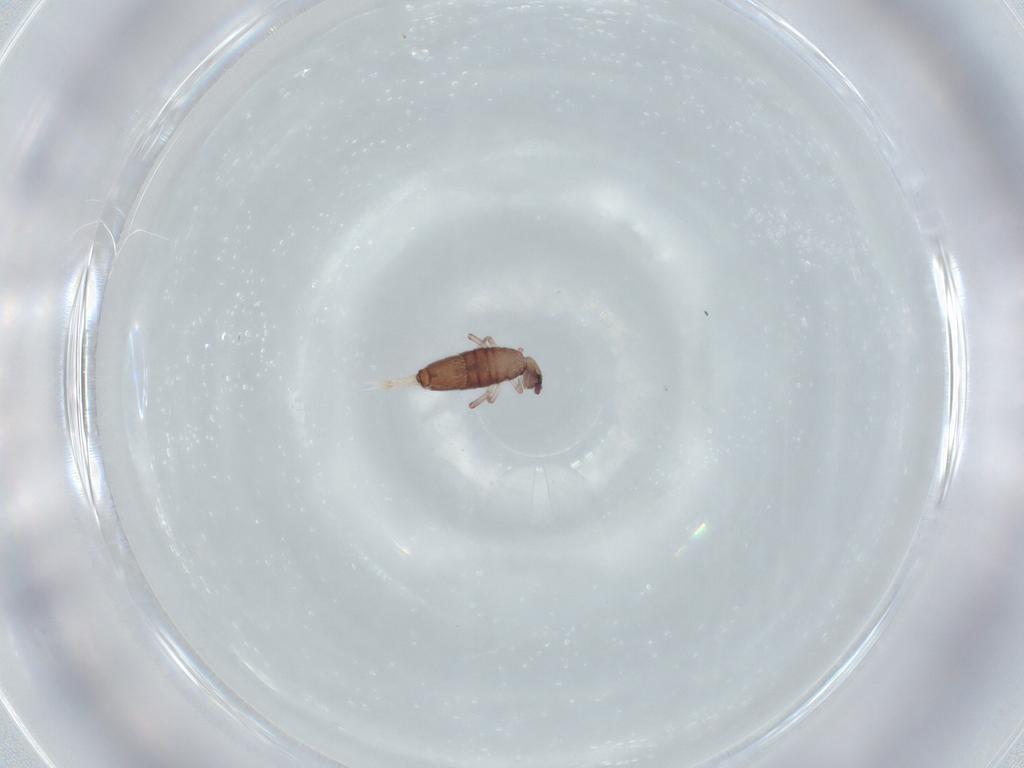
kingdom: Animalia
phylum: Arthropoda
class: Collembola
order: Entomobryomorpha
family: Entomobryidae
